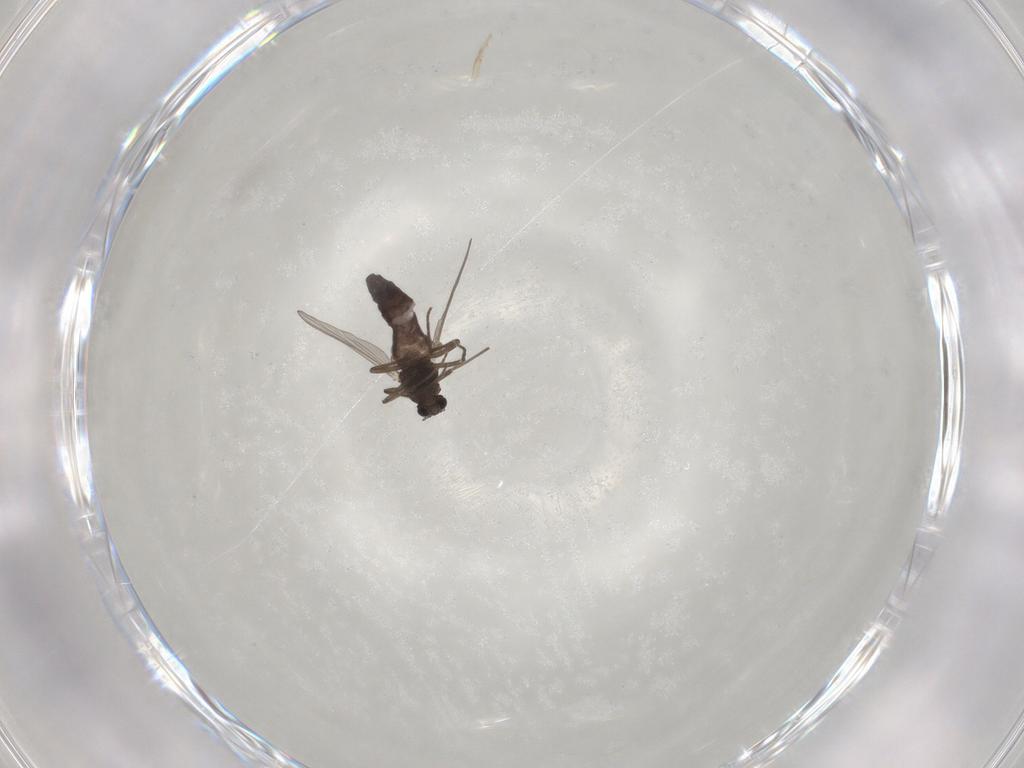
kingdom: Animalia
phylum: Arthropoda
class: Insecta
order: Diptera
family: Chironomidae
